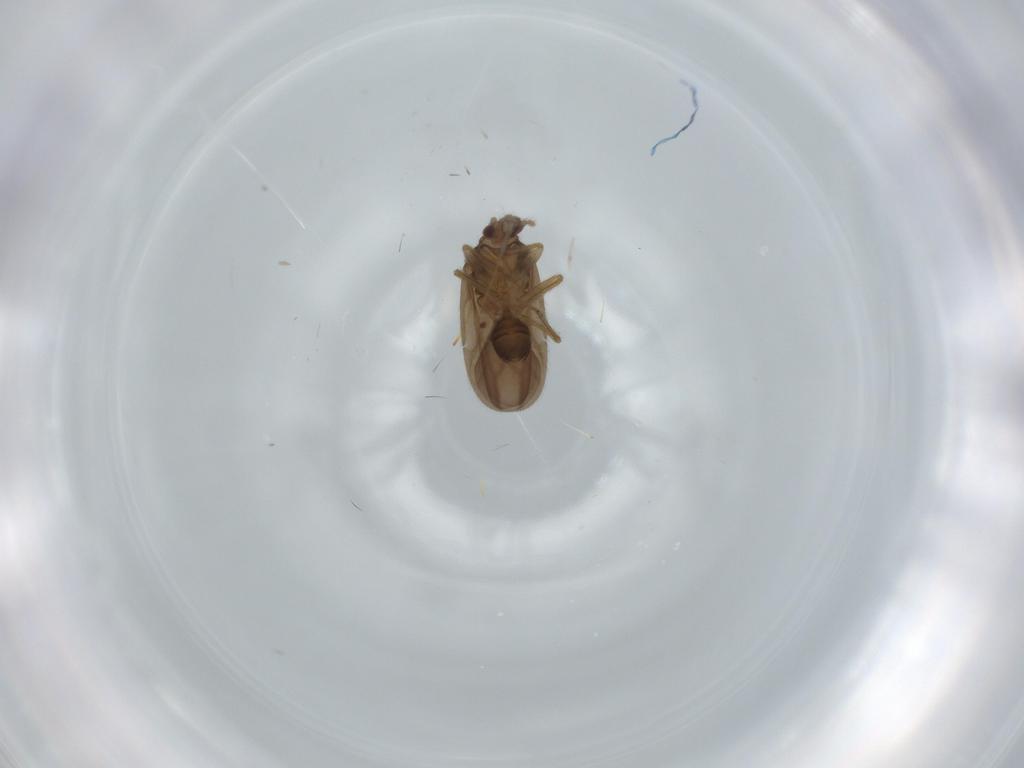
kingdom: Animalia
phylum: Arthropoda
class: Insecta
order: Hemiptera
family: Ceratocombidae
